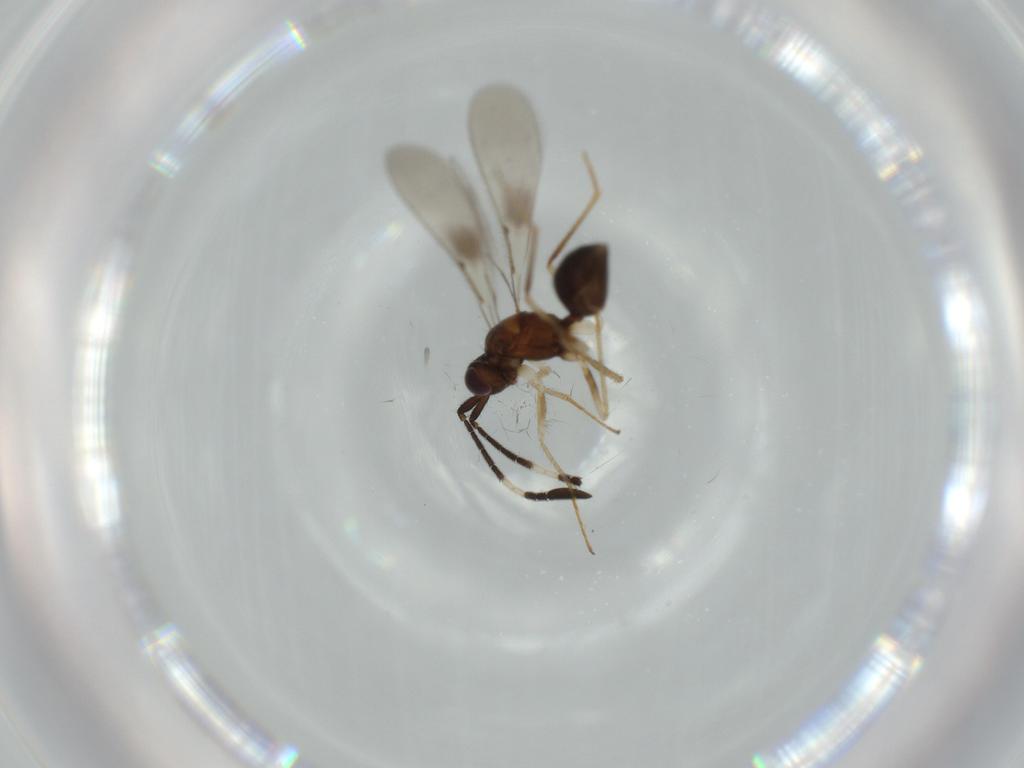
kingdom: Animalia
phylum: Arthropoda
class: Insecta
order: Hymenoptera
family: Mymaridae
